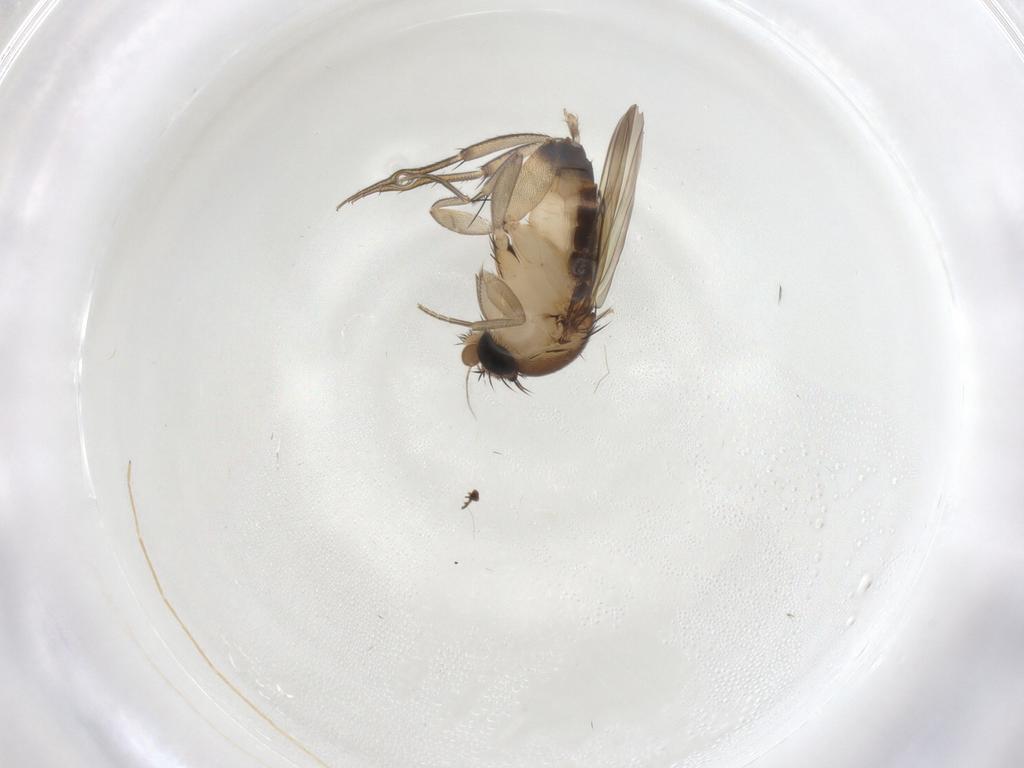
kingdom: Animalia
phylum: Arthropoda
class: Insecta
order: Diptera
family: Phoridae
